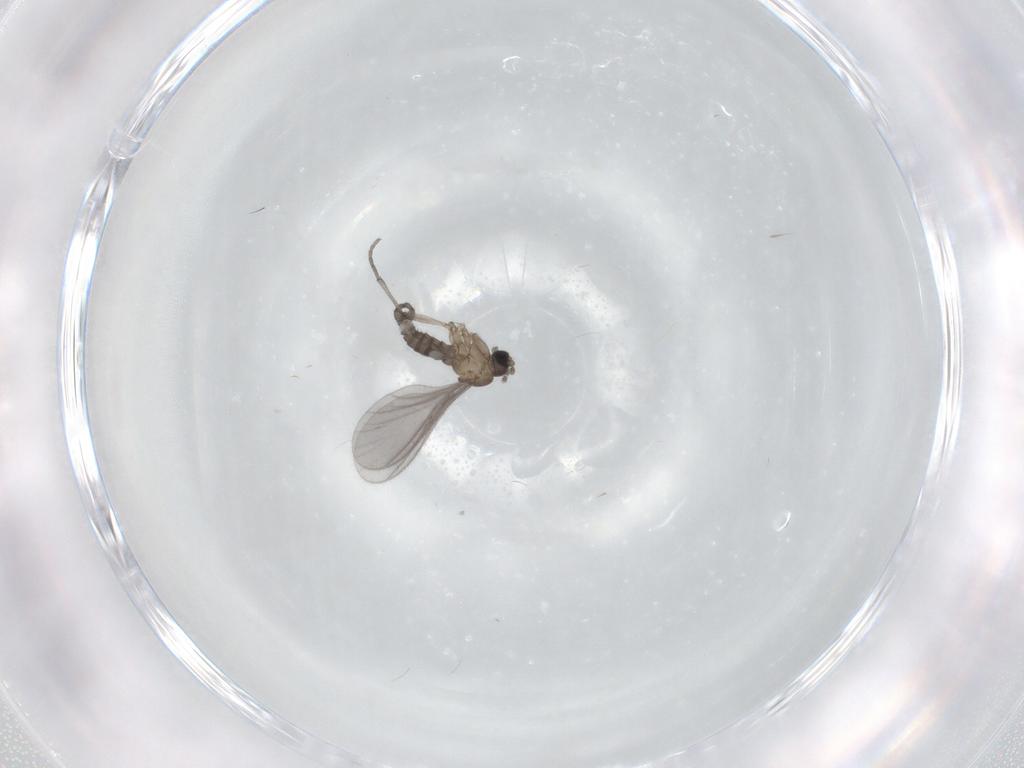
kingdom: Animalia
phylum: Arthropoda
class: Insecta
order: Diptera
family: Sciaridae
